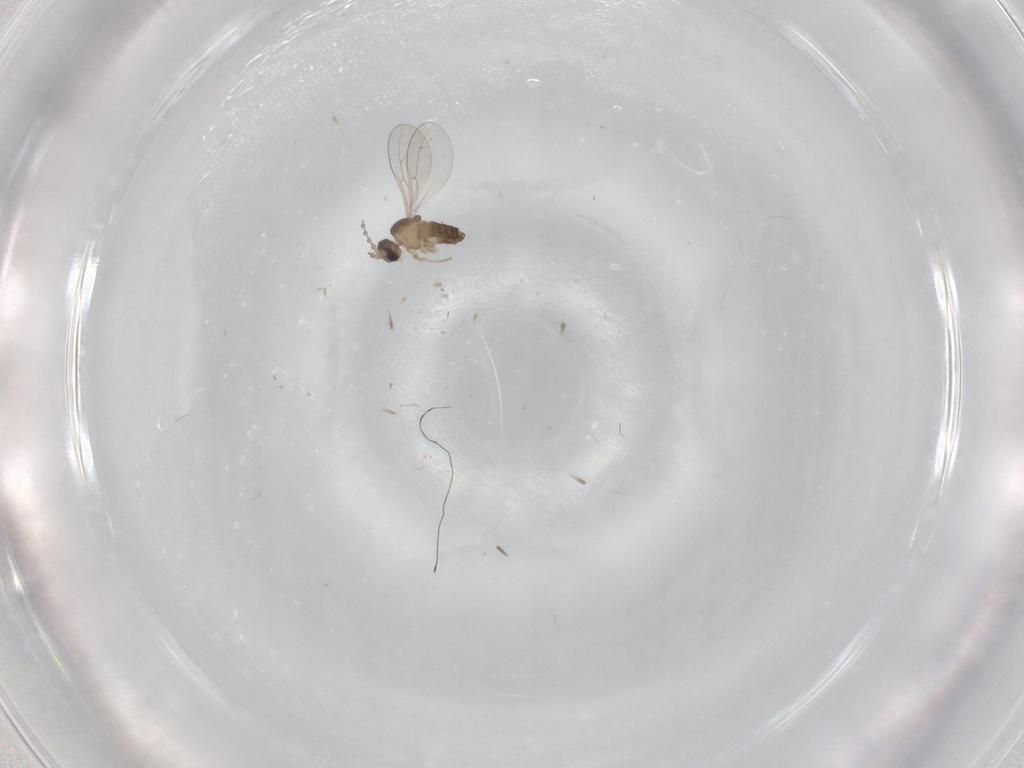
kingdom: Animalia
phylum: Arthropoda
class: Insecta
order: Diptera
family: Cecidomyiidae
